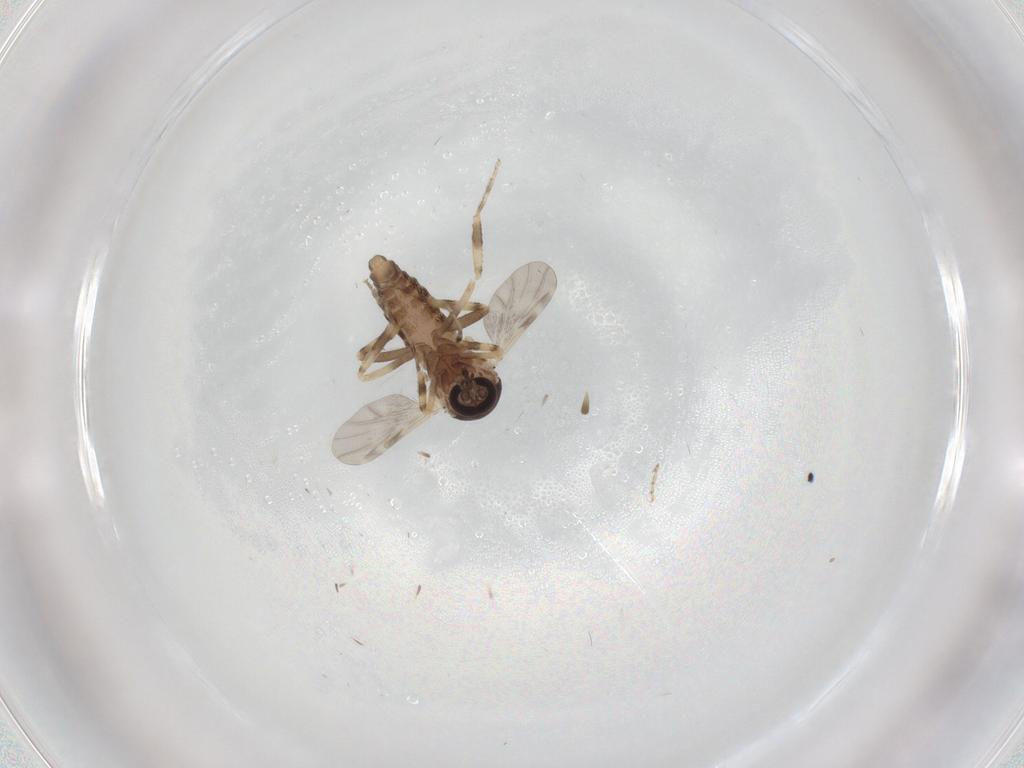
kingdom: Animalia
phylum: Arthropoda
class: Insecta
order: Diptera
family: Ceratopogonidae
